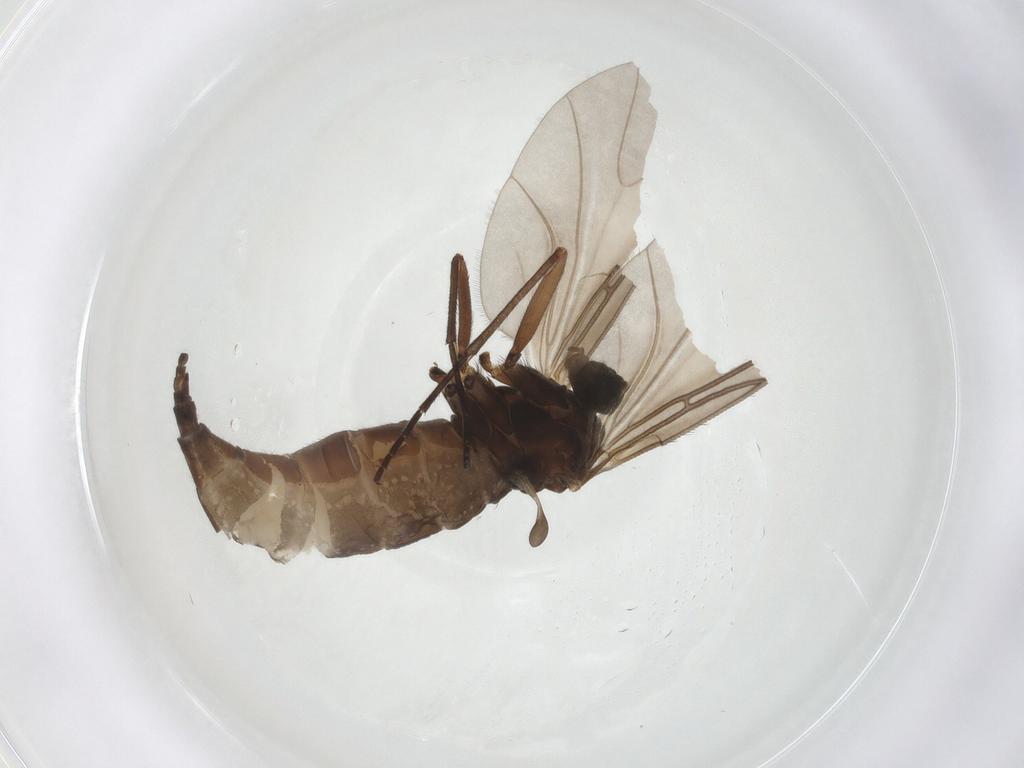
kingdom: Animalia
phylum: Arthropoda
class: Insecta
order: Diptera
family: Sciaridae
